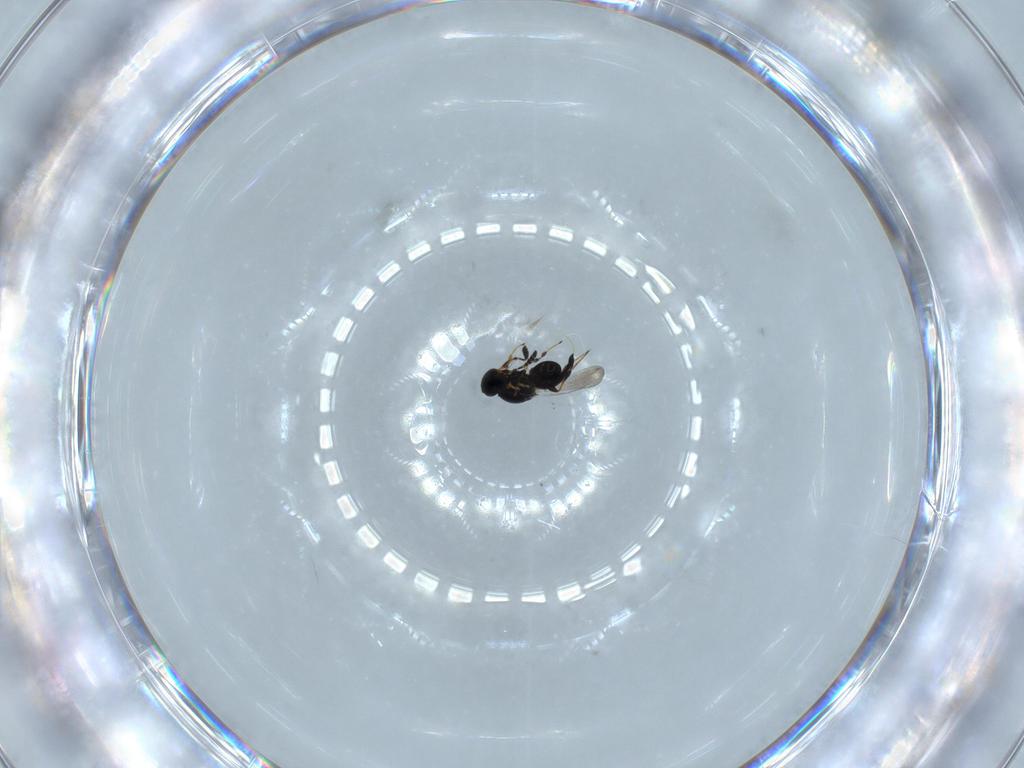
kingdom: Animalia
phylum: Arthropoda
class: Insecta
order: Hymenoptera
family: Platygastridae
